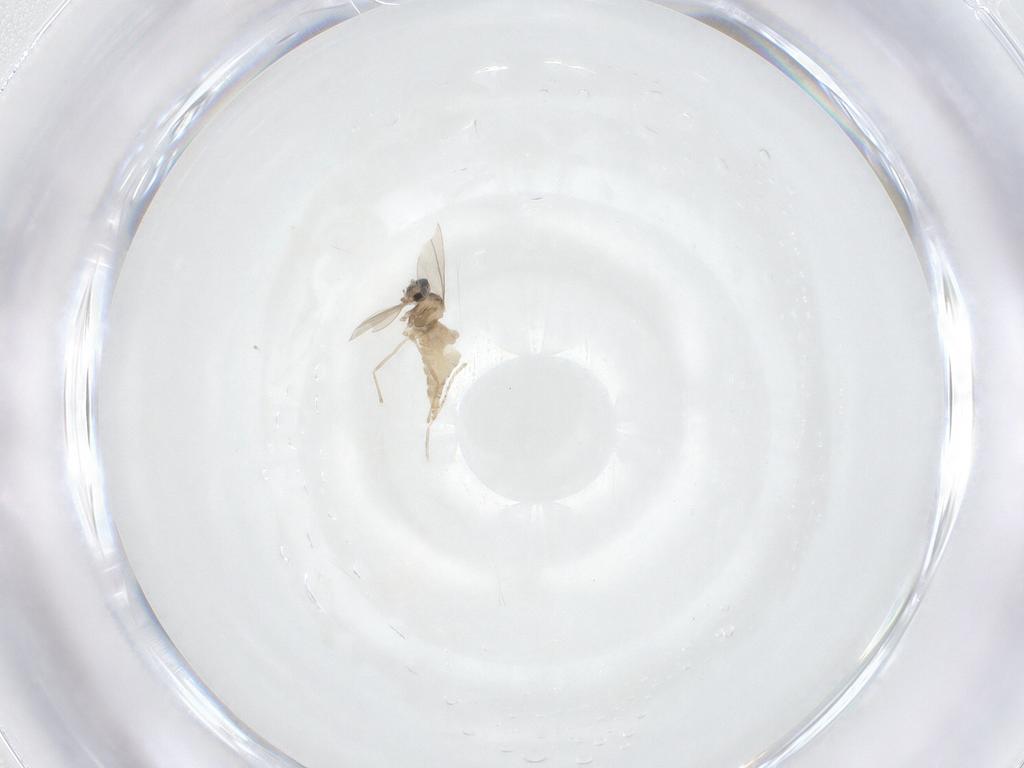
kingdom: Animalia
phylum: Arthropoda
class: Insecta
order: Diptera
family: Cecidomyiidae
